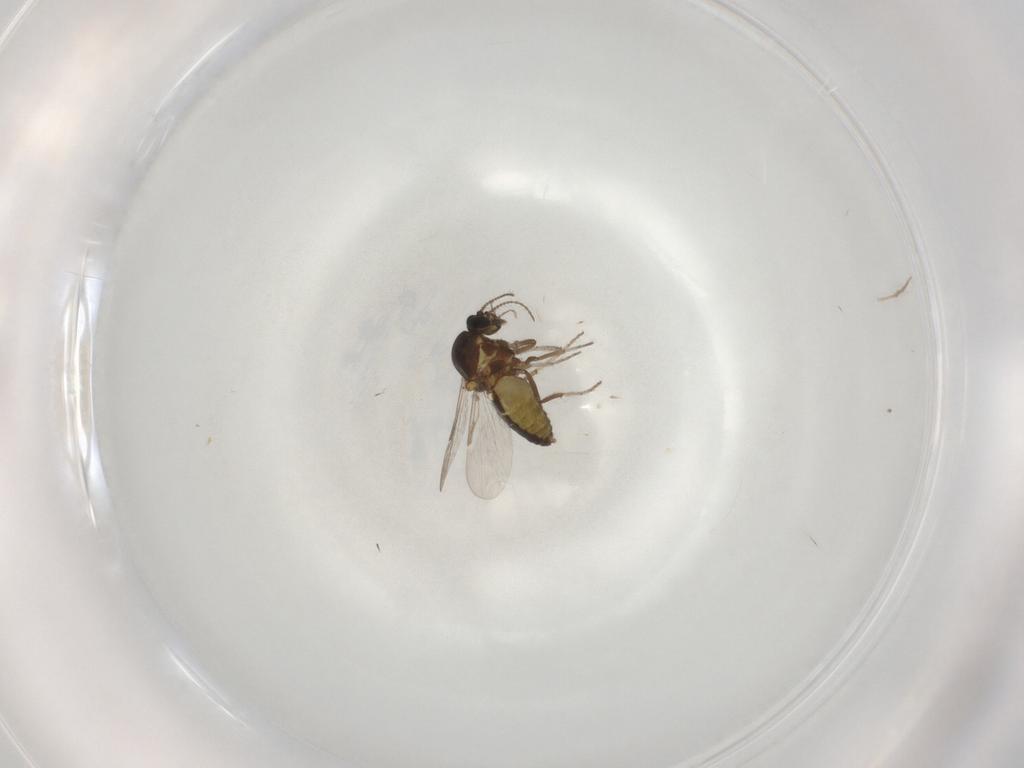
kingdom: Animalia
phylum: Arthropoda
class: Insecta
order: Diptera
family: Ceratopogonidae
